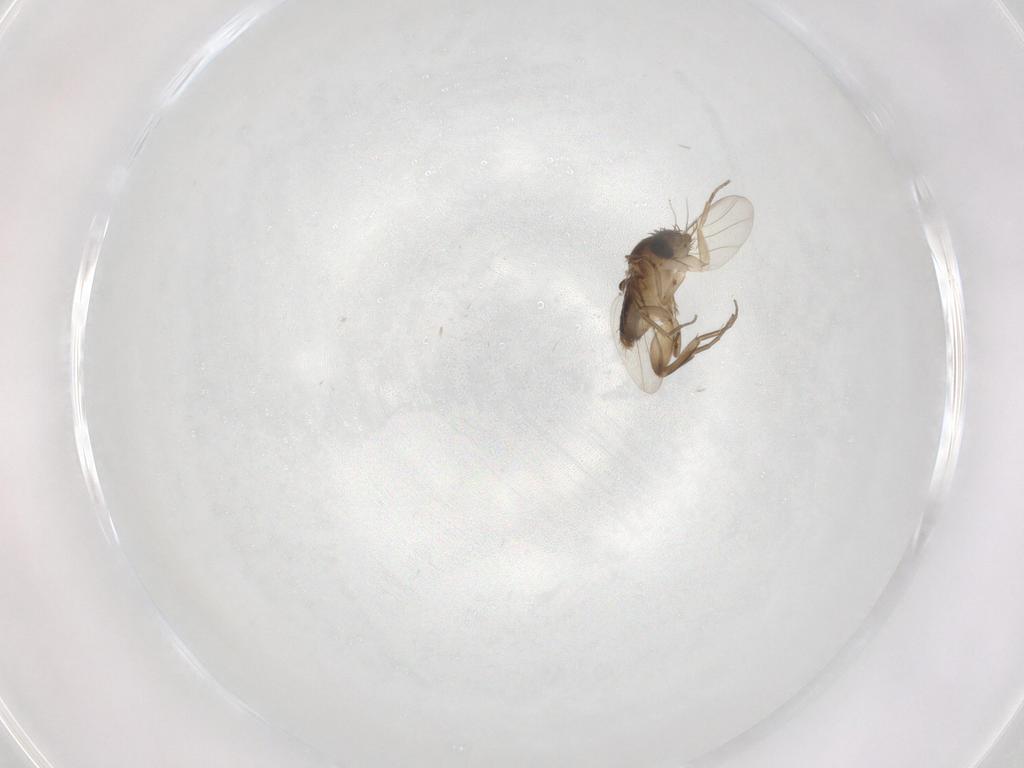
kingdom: Animalia
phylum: Arthropoda
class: Insecta
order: Diptera
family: Phoridae
